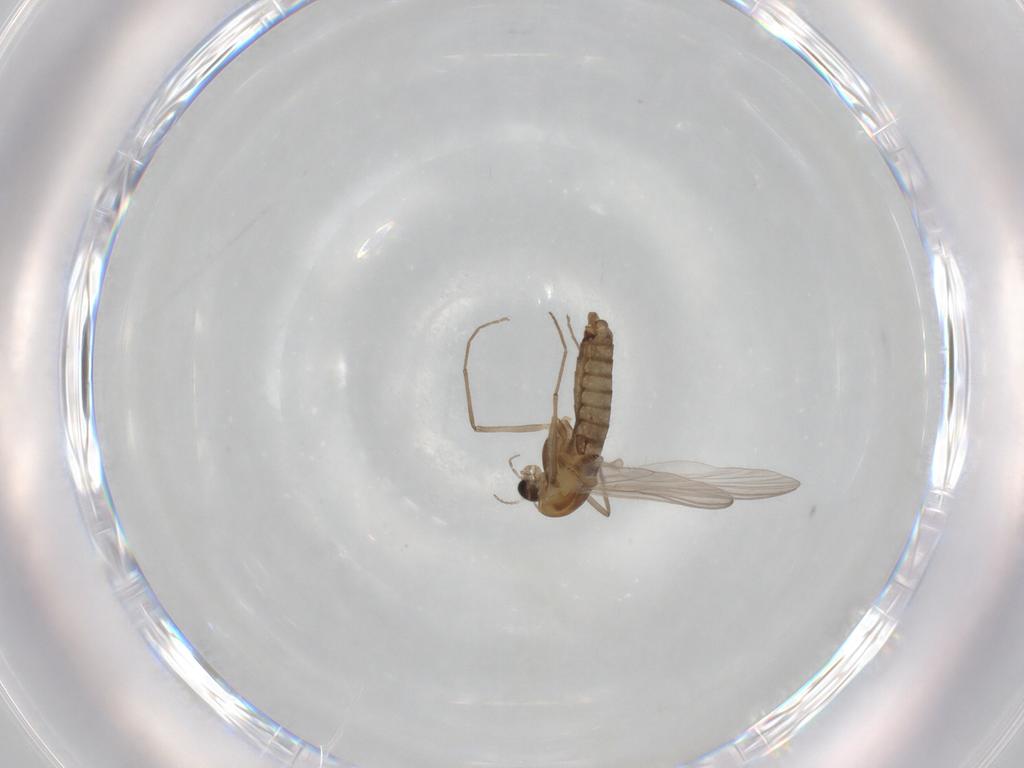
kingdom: Animalia
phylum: Arthropoda
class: Insecta
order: Diptera
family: Chironomidae
